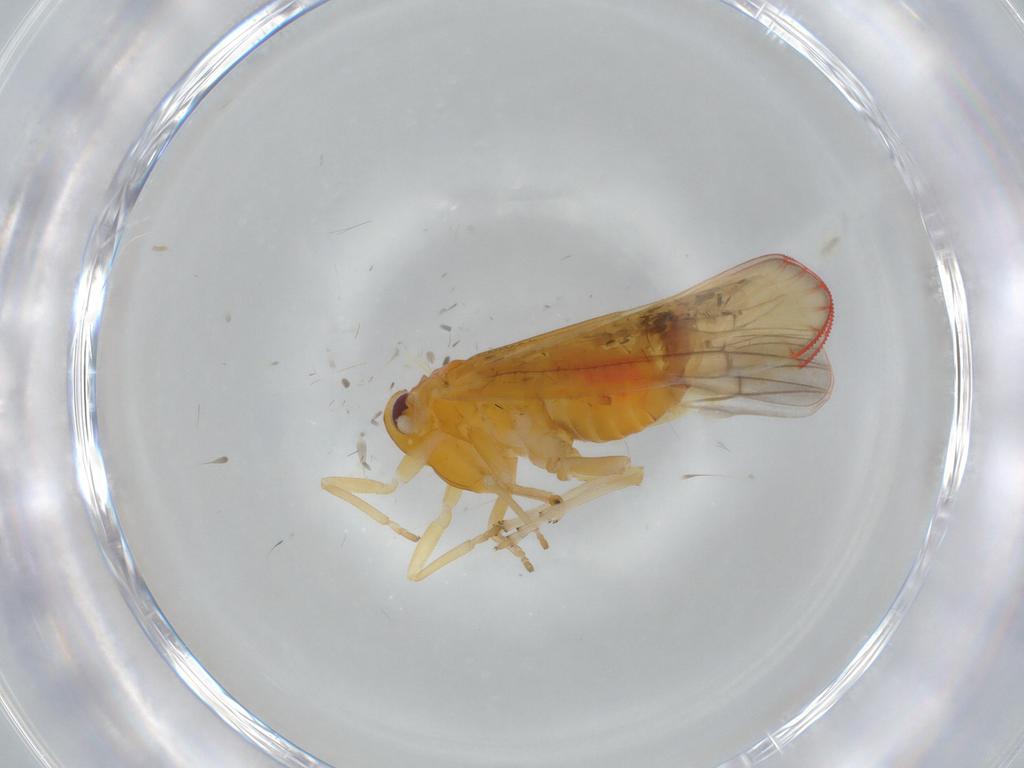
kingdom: Animalia
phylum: Arthropoda
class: Insecta
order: Hemiptera
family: Derbidae
